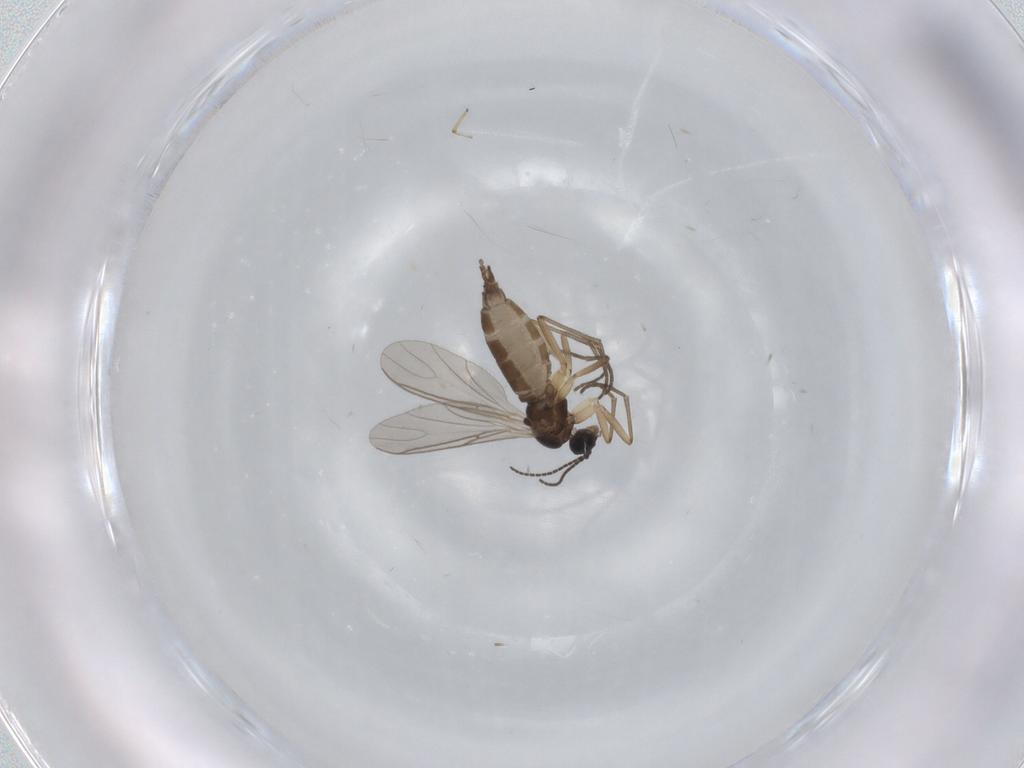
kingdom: Animalia
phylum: Arthropoda
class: Insecta
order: Diptera
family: Ceratopogonidae
